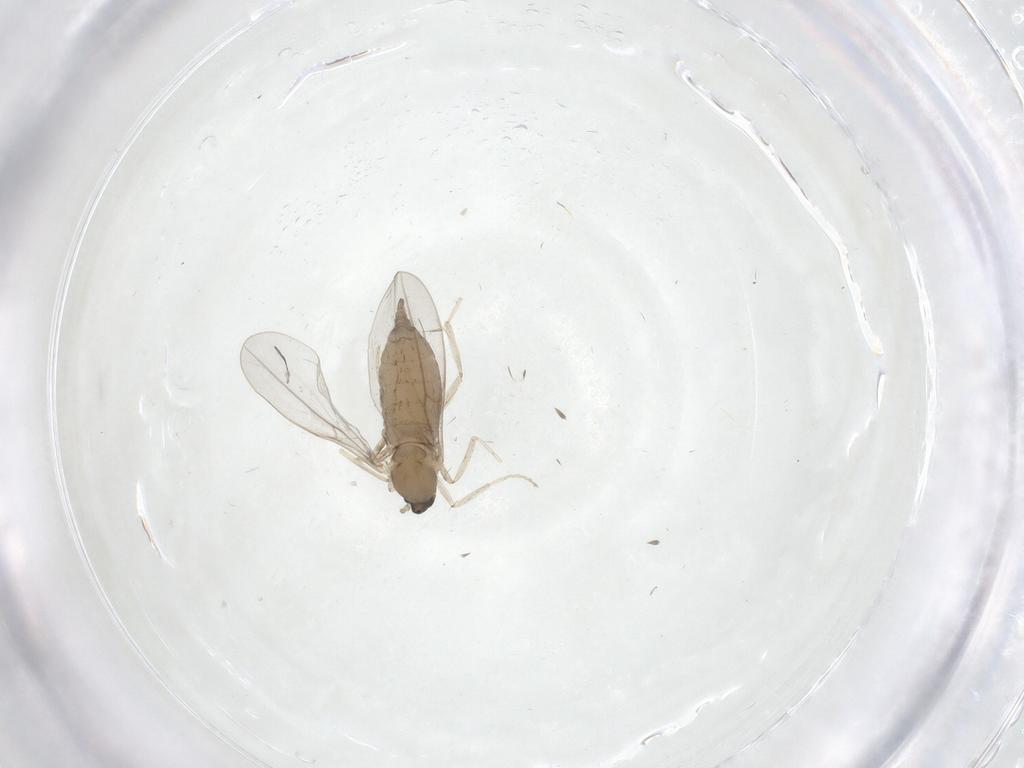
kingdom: Animalia
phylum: Arthropoda
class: Insecta
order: Diptera
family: Cecidomyiidae
